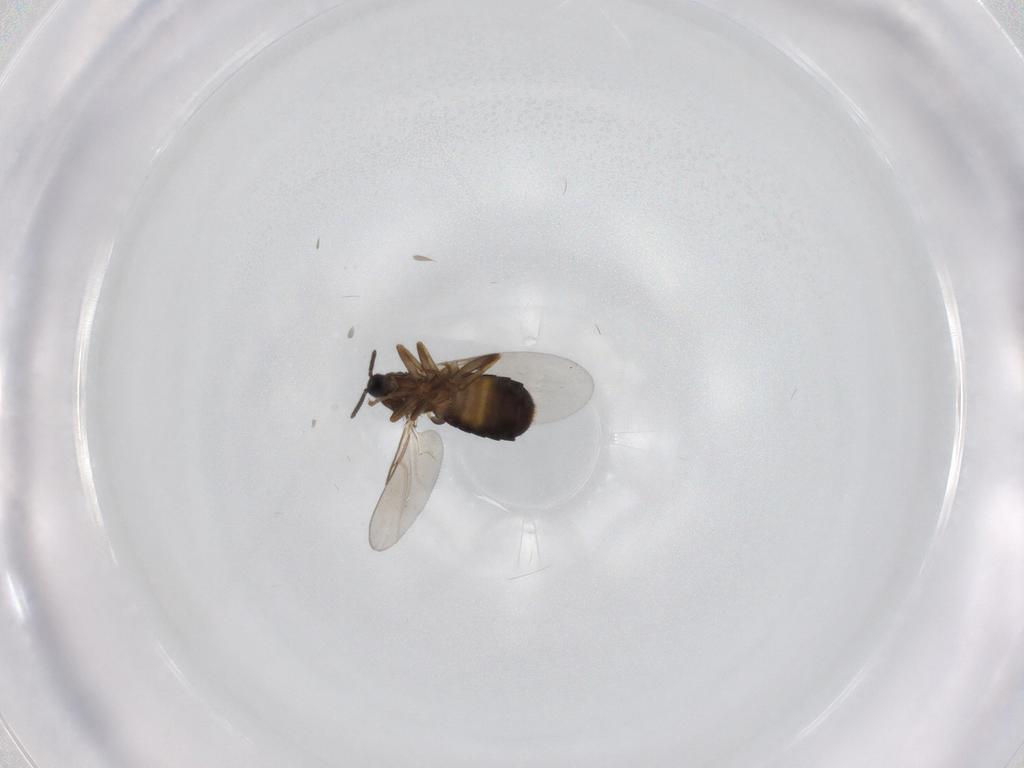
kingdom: Animalia
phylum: Arthropoda
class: Insecta
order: Diptera
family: Scatopsidae
